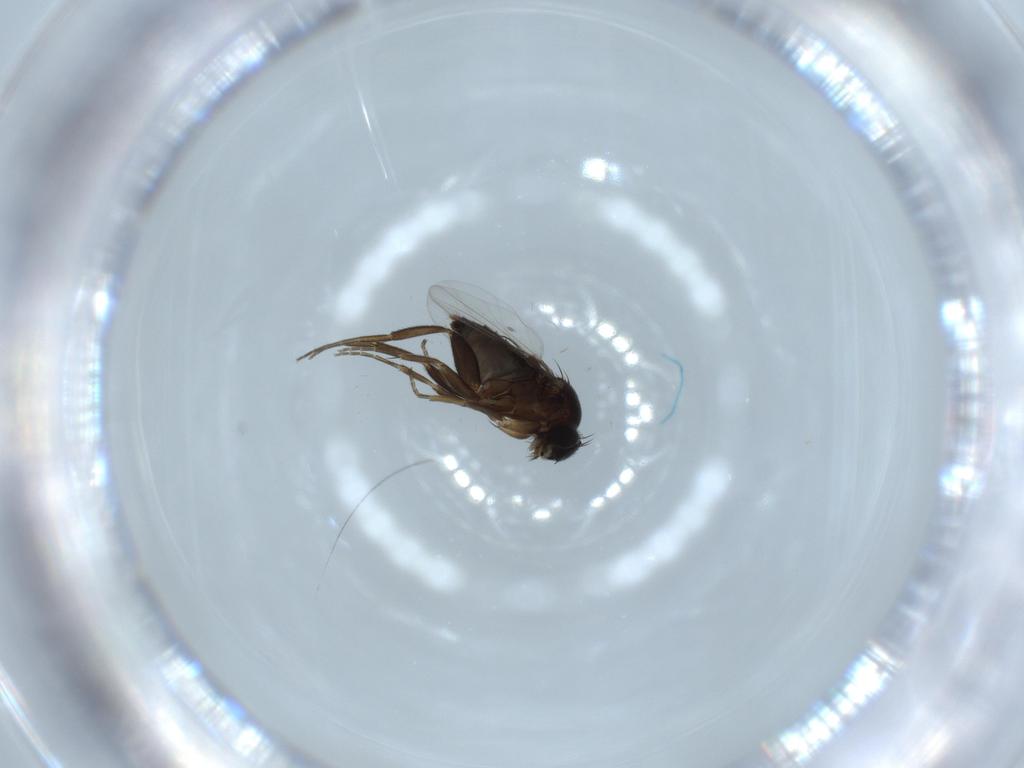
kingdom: Animalia
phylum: Arthropoda
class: Insecta
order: Diptera
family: Phoridae
